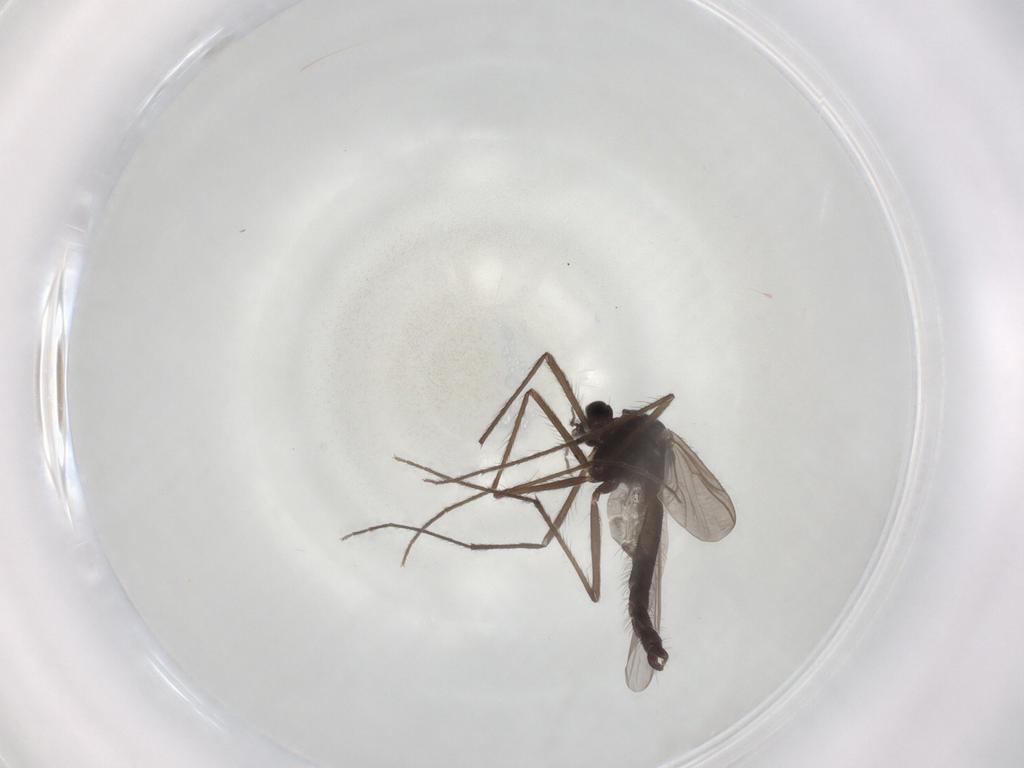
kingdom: Animalia
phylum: Arthropoda
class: Insecta
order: Diptera
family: Chironomidae
